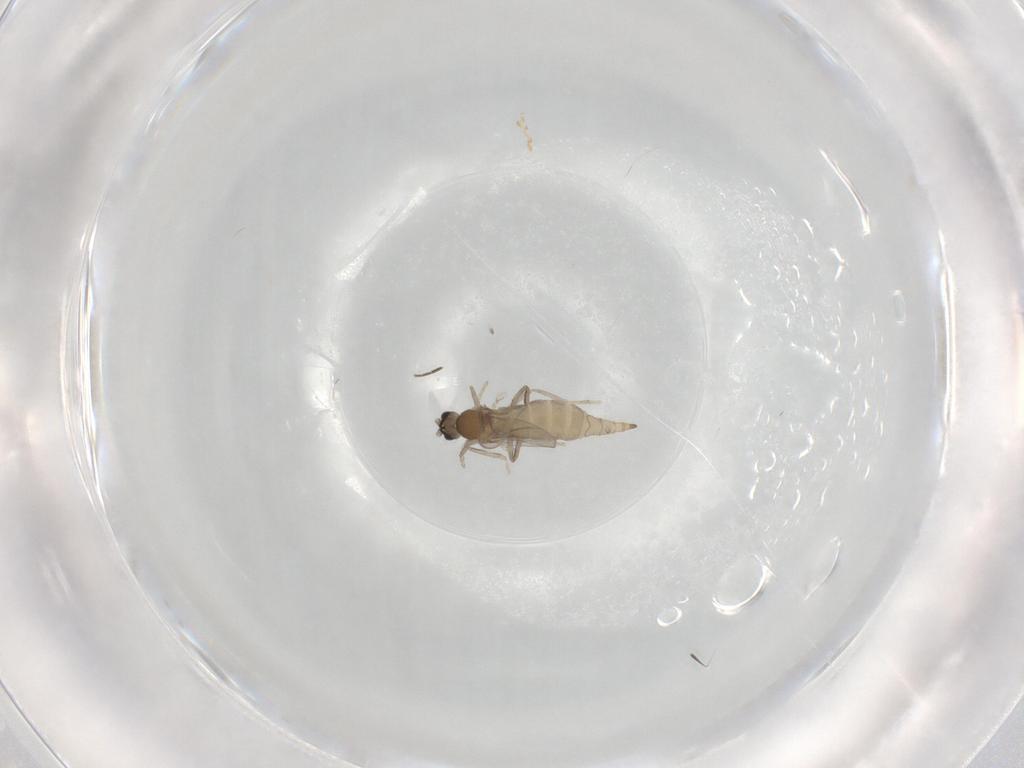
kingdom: Animalia
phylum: Arthropoda
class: Insecta
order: Diptera
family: Cecidomyiidae
